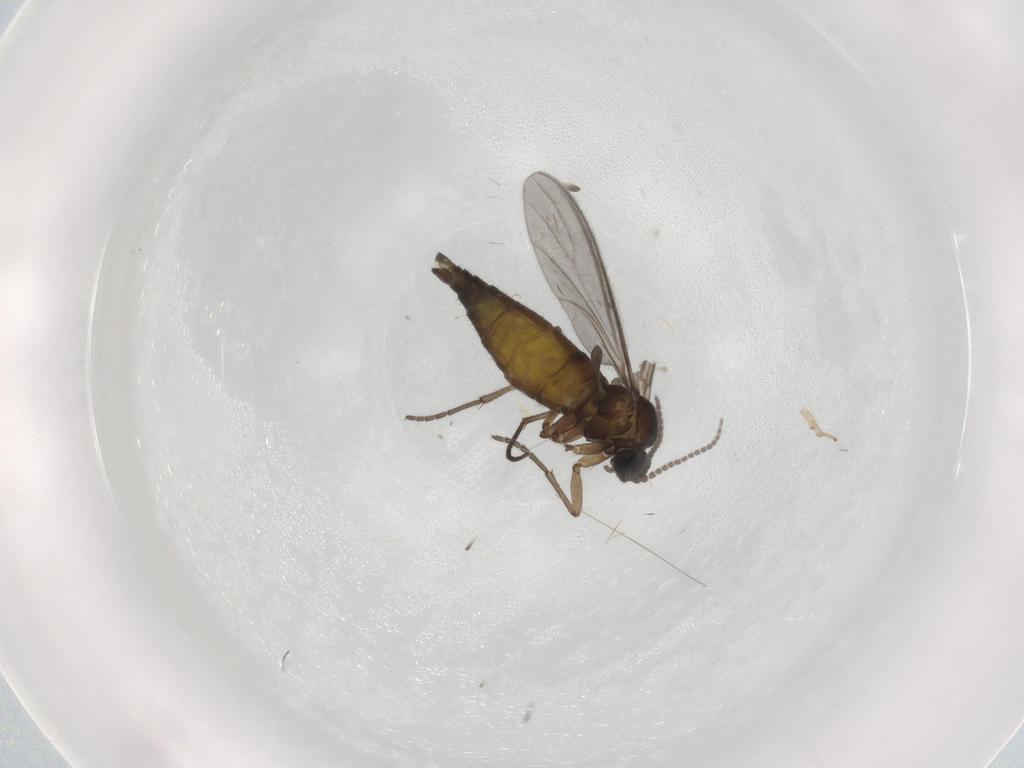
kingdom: Animalia
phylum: Arthropoda
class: Insecta
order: Diptera
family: Sciaridae
